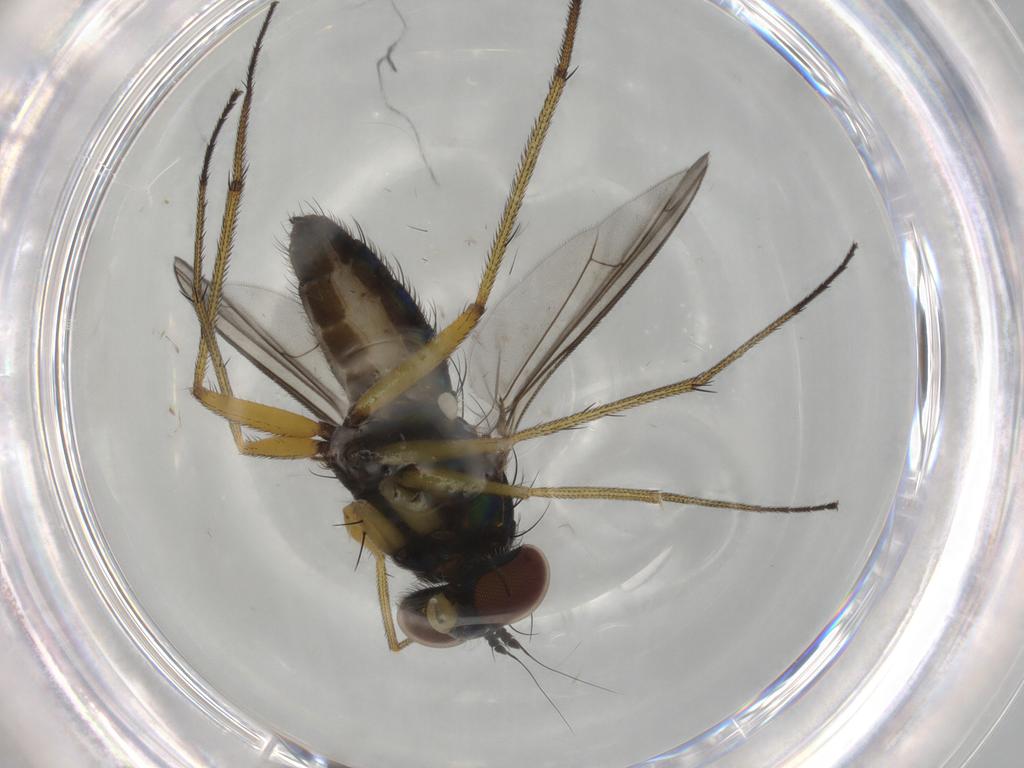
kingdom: Animalia
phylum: Arthropoda
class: Insecta
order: Diptera
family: Dolichopodidae
